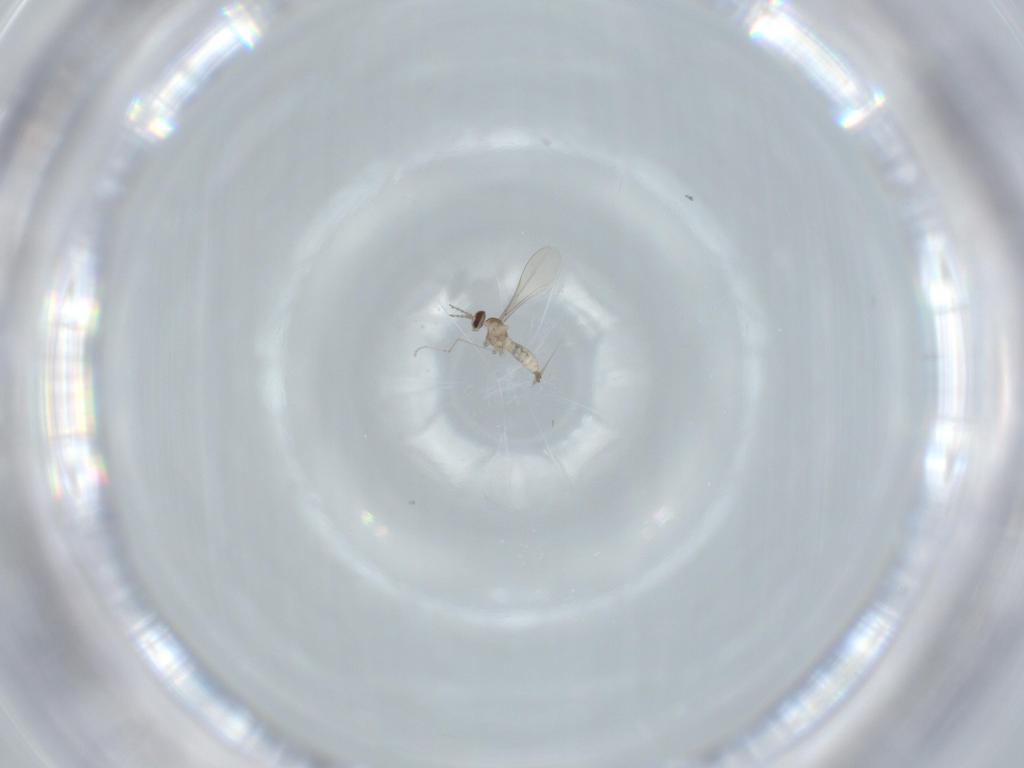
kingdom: Animalia
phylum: Arthropoda
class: Insecta
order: Diptera
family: Cecidomyiidae
